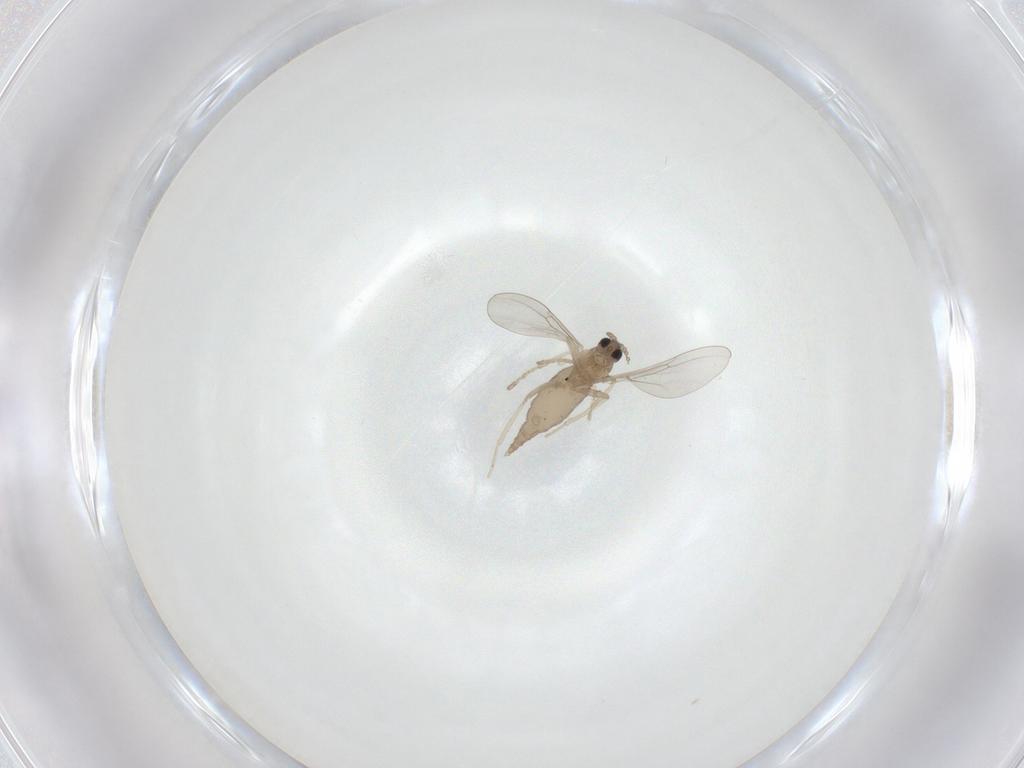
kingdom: Animalia
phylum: Arthropoda
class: Insecta
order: Diptera
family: Cecidomyiidae
